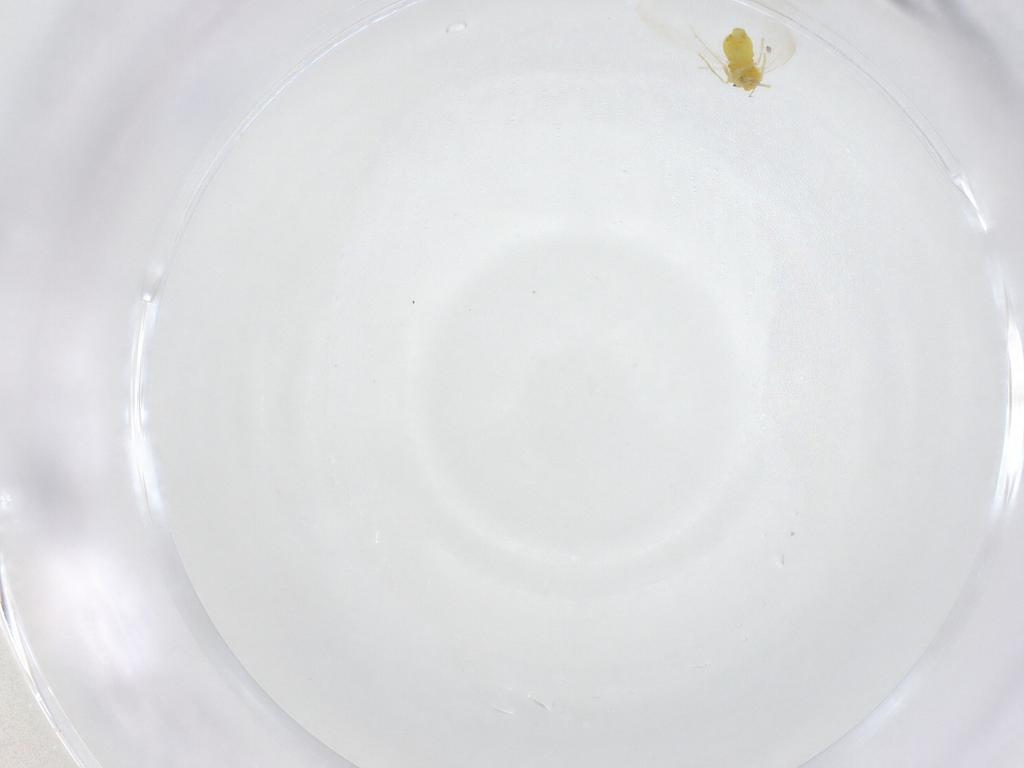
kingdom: Animalia
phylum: Arthropoda
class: Insecta
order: Hemiptera
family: Aleyrodidae
